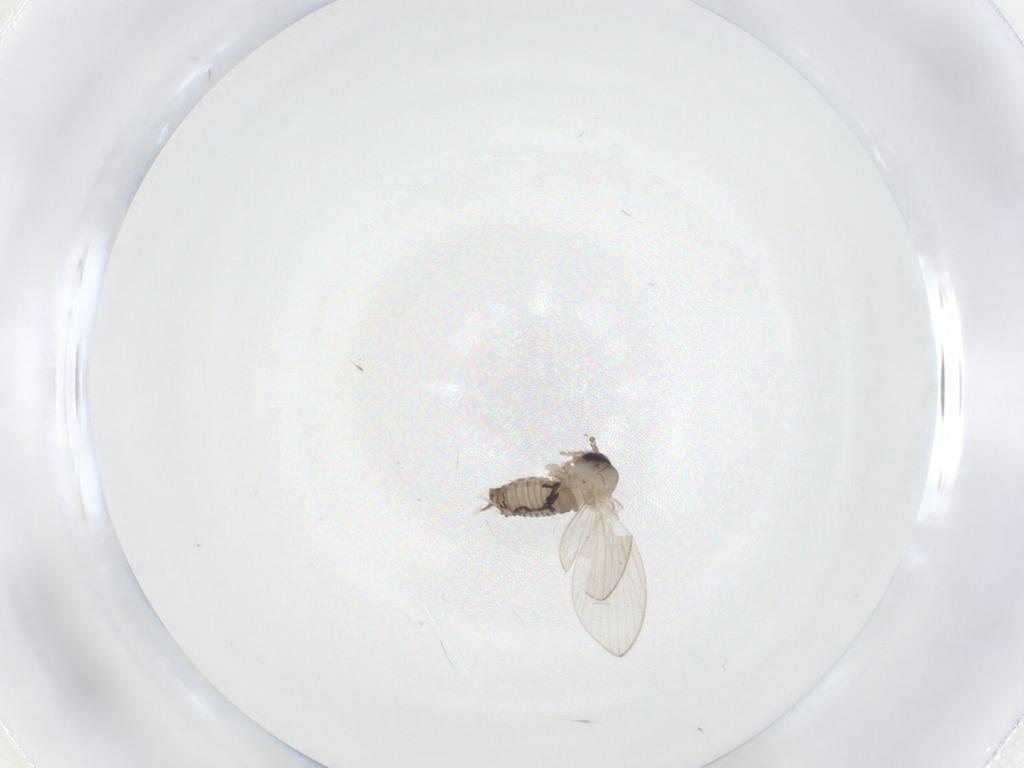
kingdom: Animalia
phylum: Arthropoda
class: Insecta
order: Diptera
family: Psychodidae
